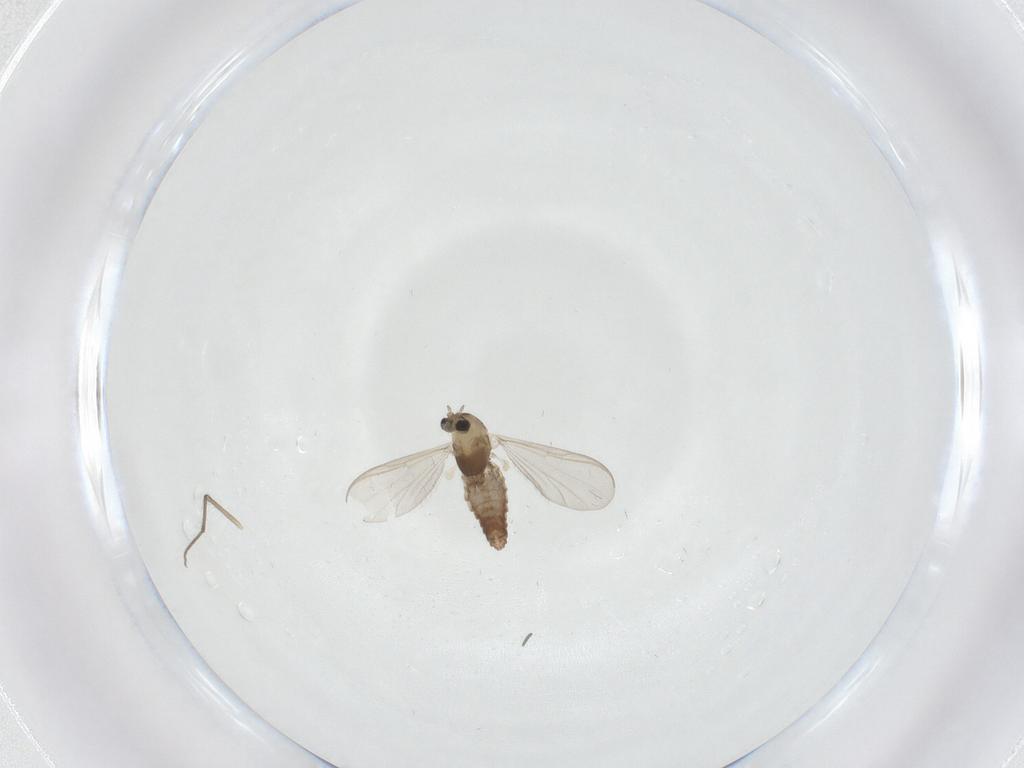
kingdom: Animalia
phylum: Arthropoda
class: Insecta
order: Diptera
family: Chironomidae
